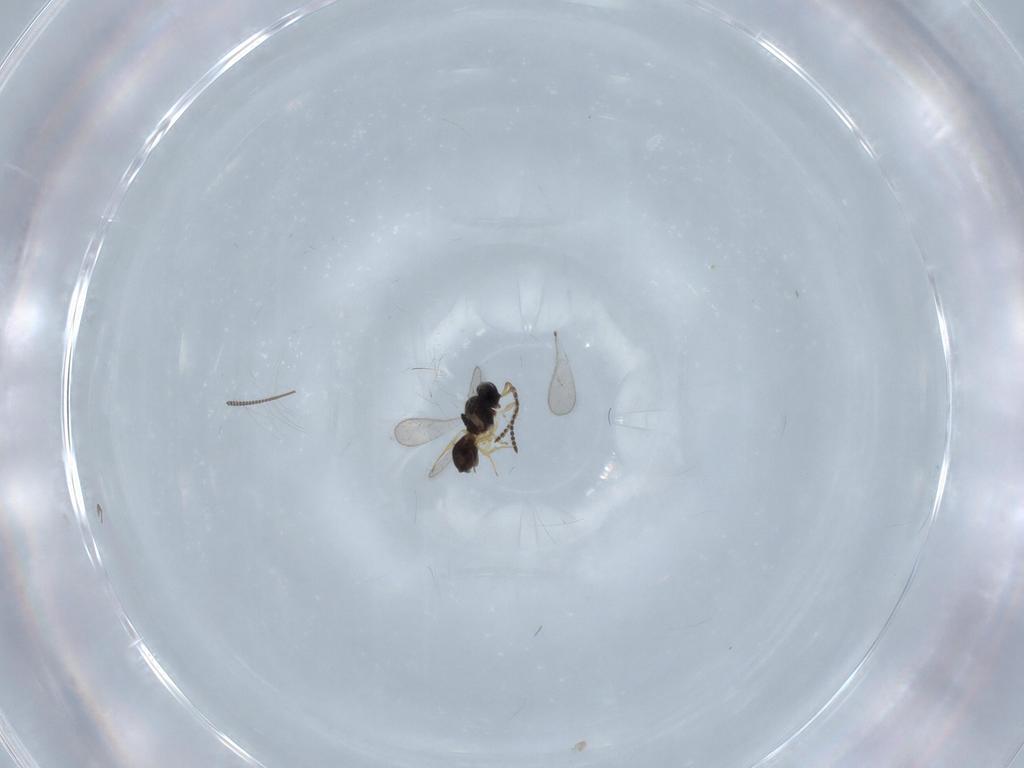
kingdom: Animalia
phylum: Arthropoda
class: Insecta
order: Hymenoptera
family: Scelionidae
